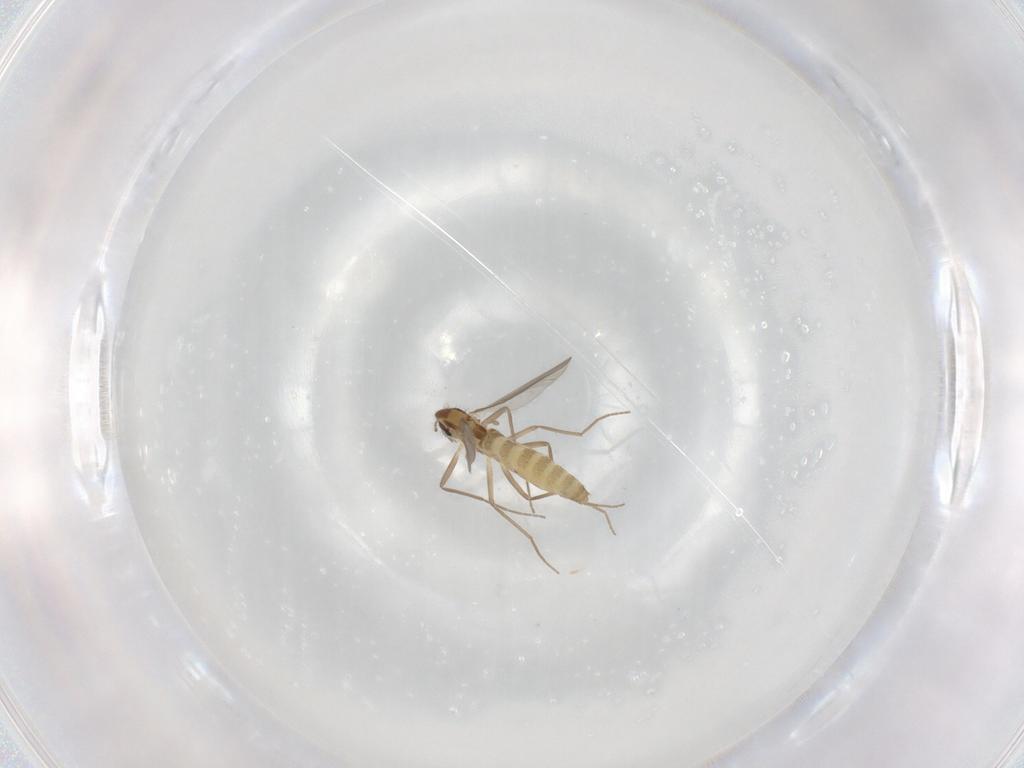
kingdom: Animalia
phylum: Arthropoda
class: Insecta
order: Diptera
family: Chironomidae
